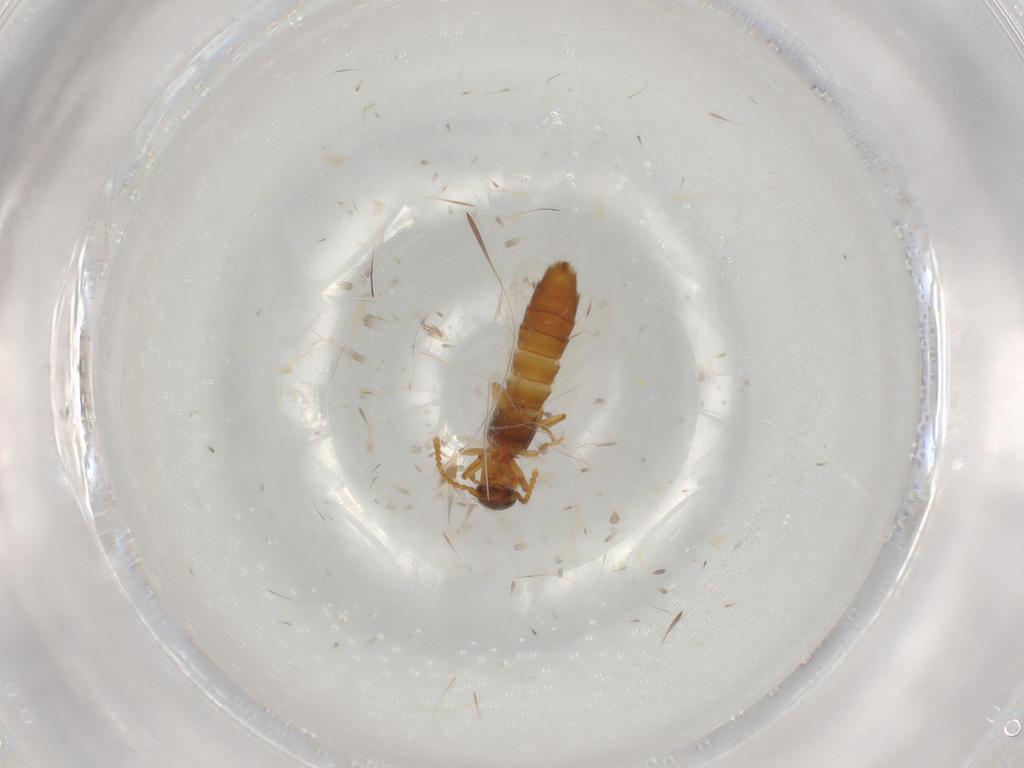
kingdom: Animalia
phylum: Arthropoda
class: Insecta
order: Coleoptera
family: Staphylinidae
